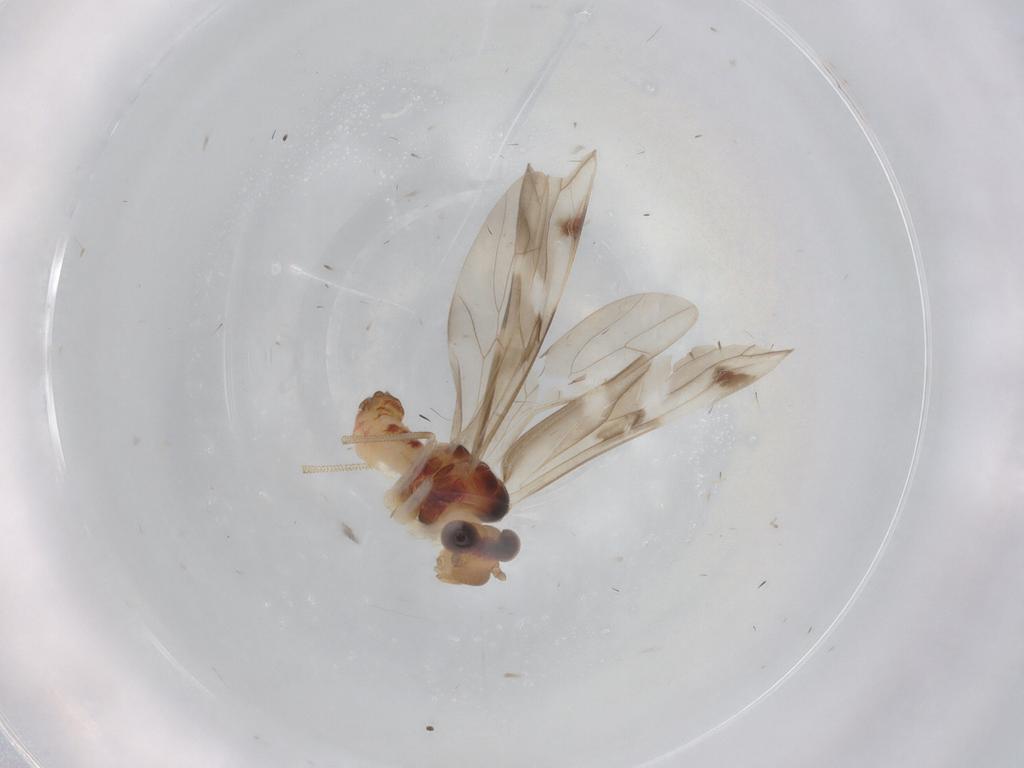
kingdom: Animalia
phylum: Arthropoda
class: Insecta
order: Psocodea
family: Caeciliusidae
